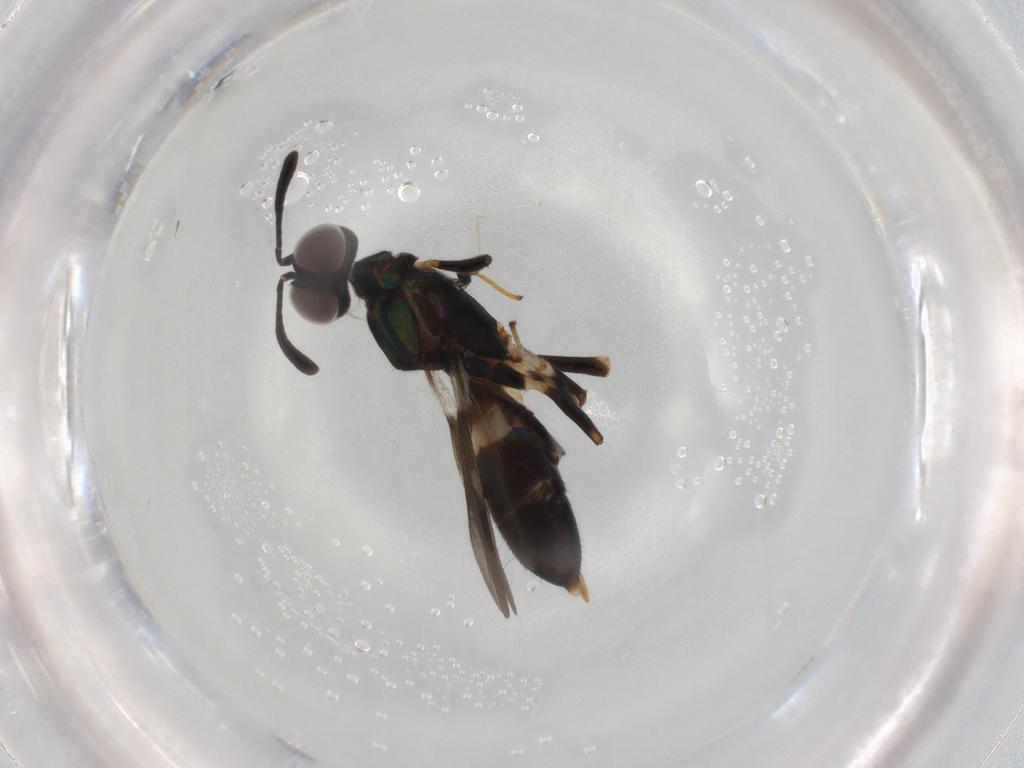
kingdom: Animalia
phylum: Arthropoda
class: Insecta
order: Hymenoptera
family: Eupelmidae
